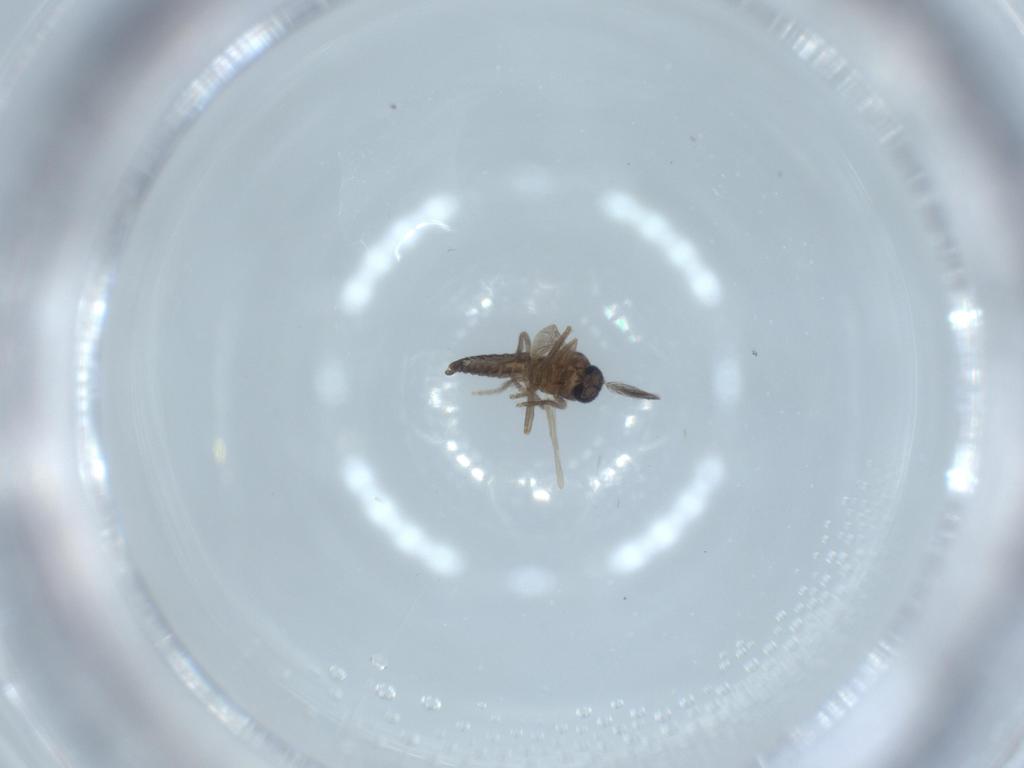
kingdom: Animalia
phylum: Arthropoda
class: Insecta
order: Diptera
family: Ceratopogonidae
